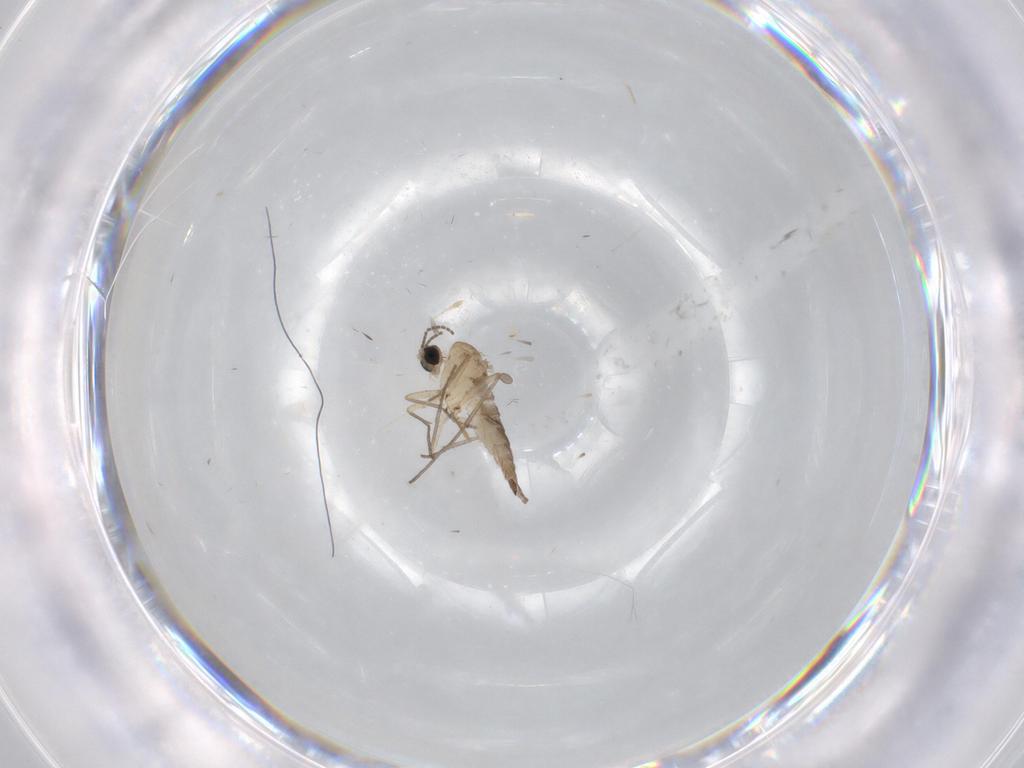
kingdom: Animalia
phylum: Arthropoda
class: Insecta
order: Diptera
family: Sciaridae
